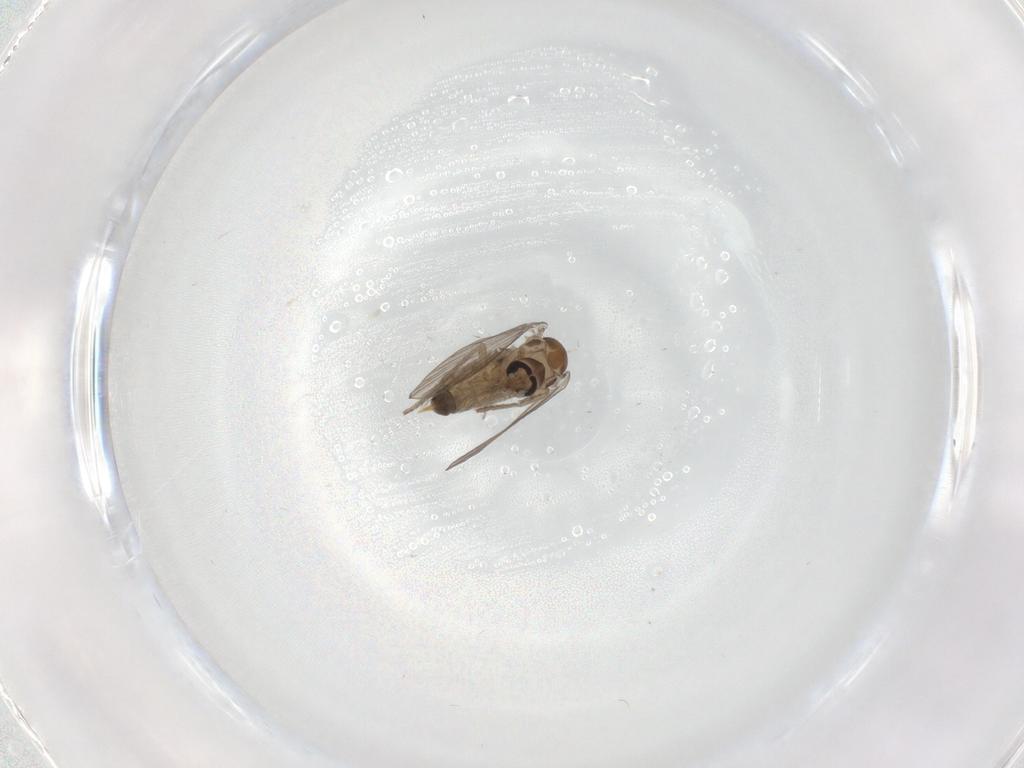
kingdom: Animalia
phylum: Arthropoda
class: Insecta
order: Diptera
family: Psychodidae
